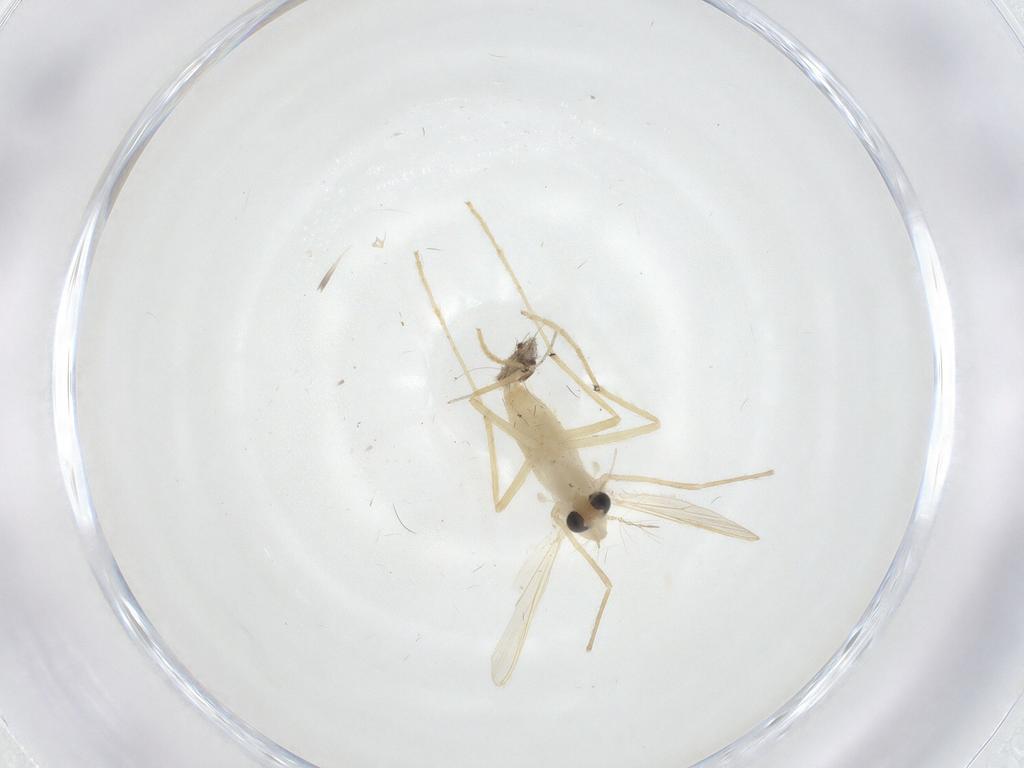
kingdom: Animalia
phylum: Arthropoda
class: Insecta
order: Diptera
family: Chironomidae
